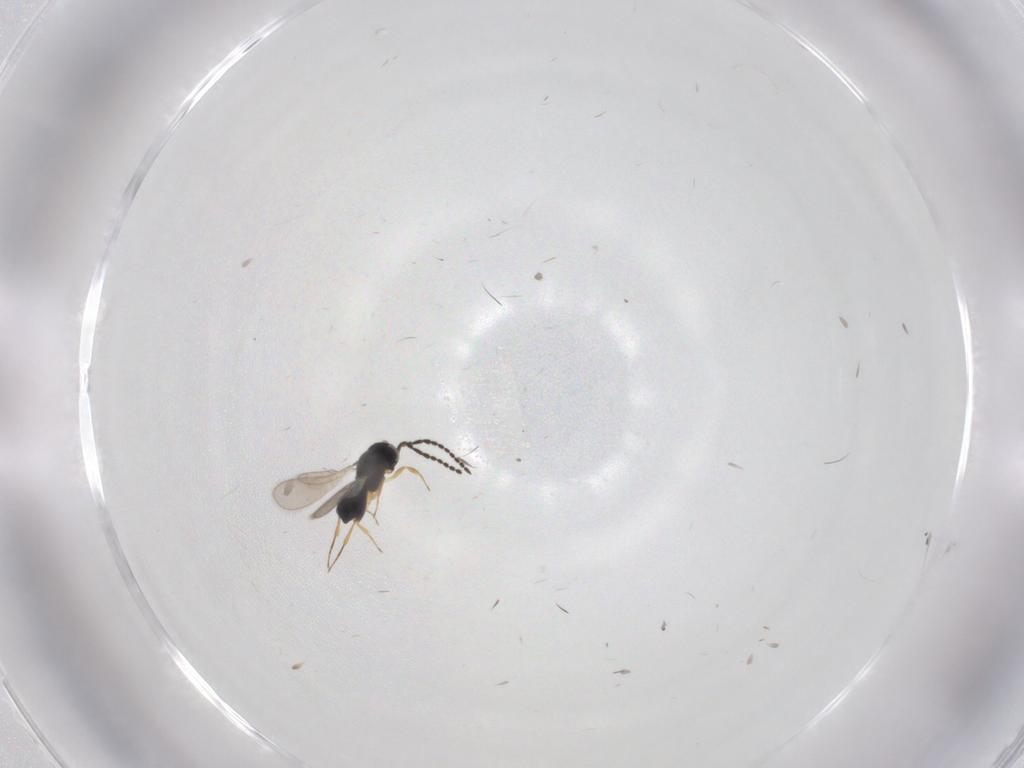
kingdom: Animalia
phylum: Arthropoda
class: Insecta
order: Hymenoptera
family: Scelionidae
